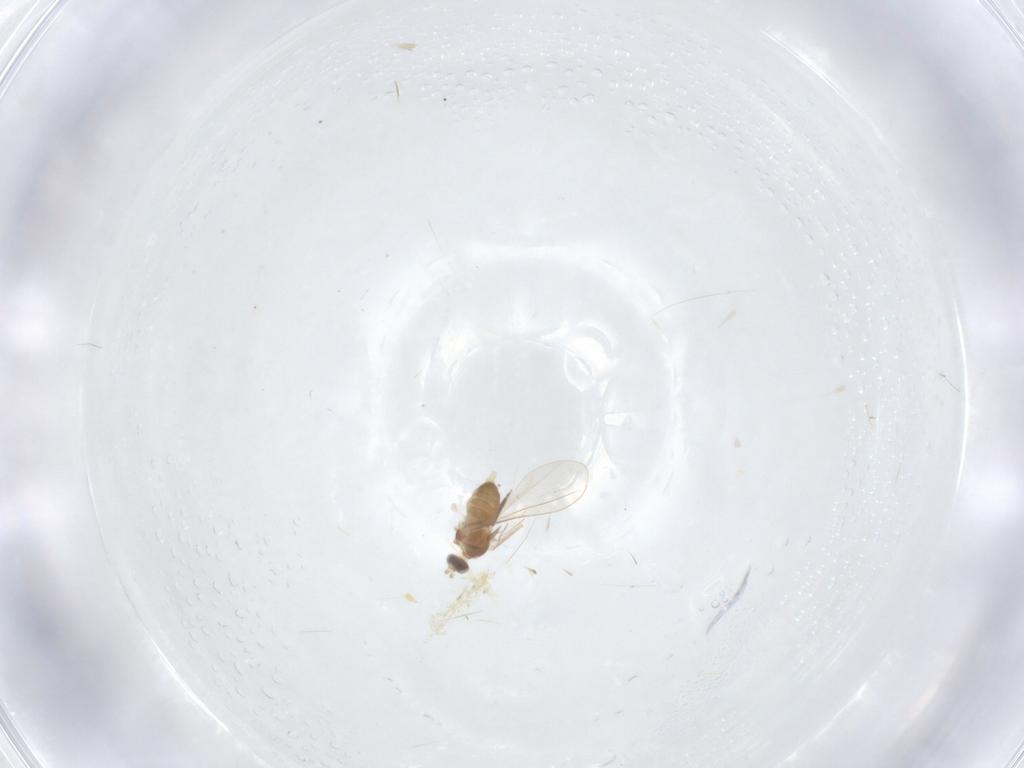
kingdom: Animalia
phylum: Arthropoda
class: Insecta
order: Diptera
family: Cecidomyiidae
